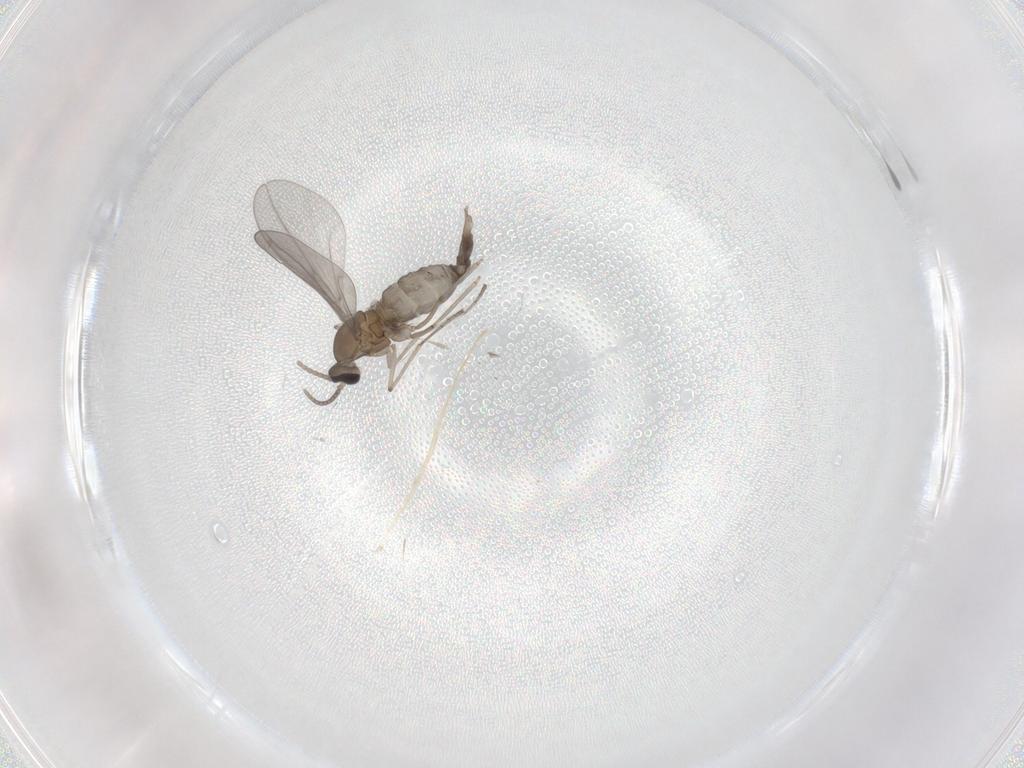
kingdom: Animalia
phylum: Arthropoda
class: Insecta
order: Diptera
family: Cecidomyiidae
